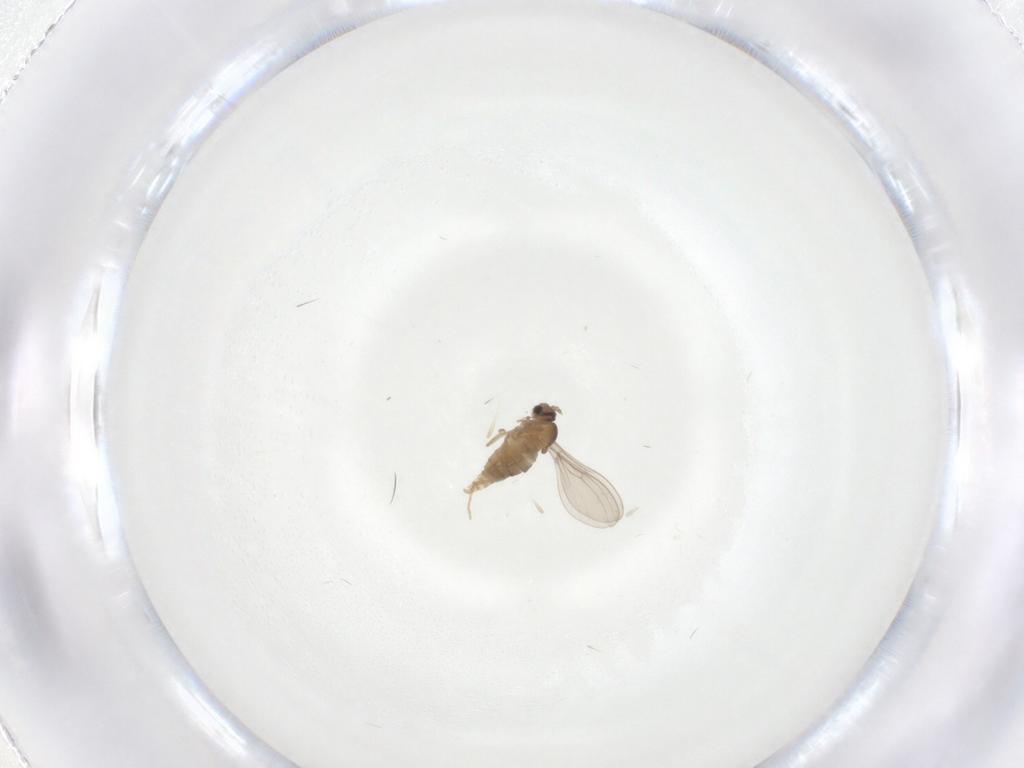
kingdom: Animalia
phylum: Arthropoda
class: Insecta
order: Diptera
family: Cecidomyiidae
